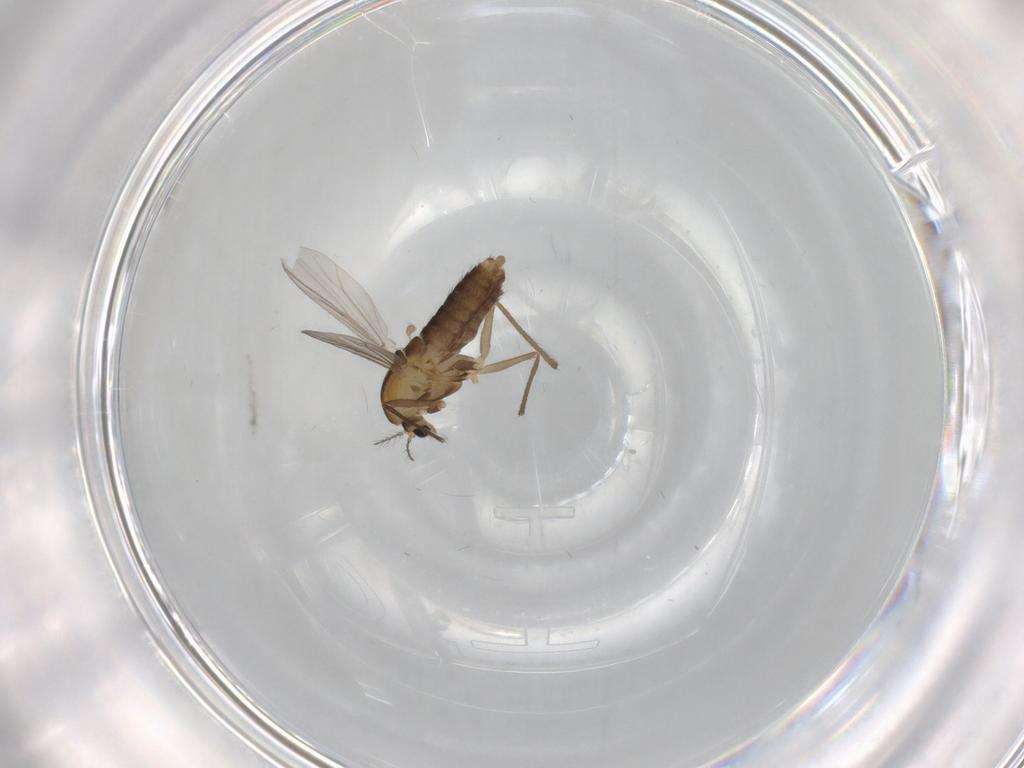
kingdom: Animalia
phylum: Arthropoda
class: Insecta
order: Diptera
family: Chironomidae
